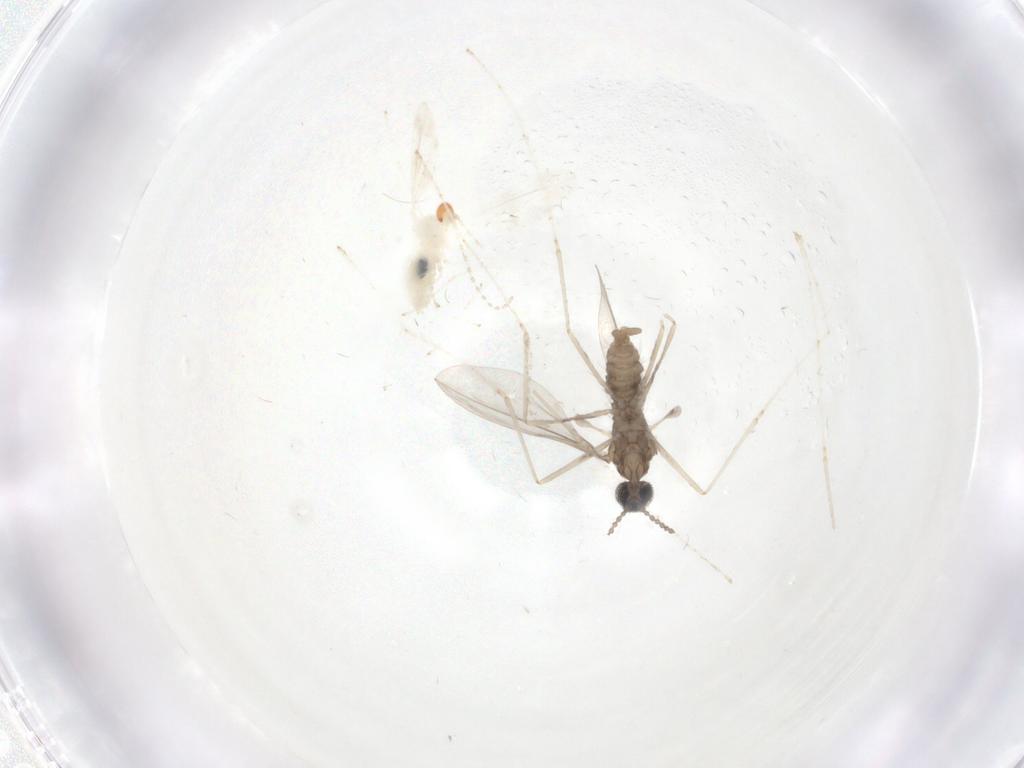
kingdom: Animalia
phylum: Arthropoda
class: Insecta
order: Diptera
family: Cecidomyiidae
